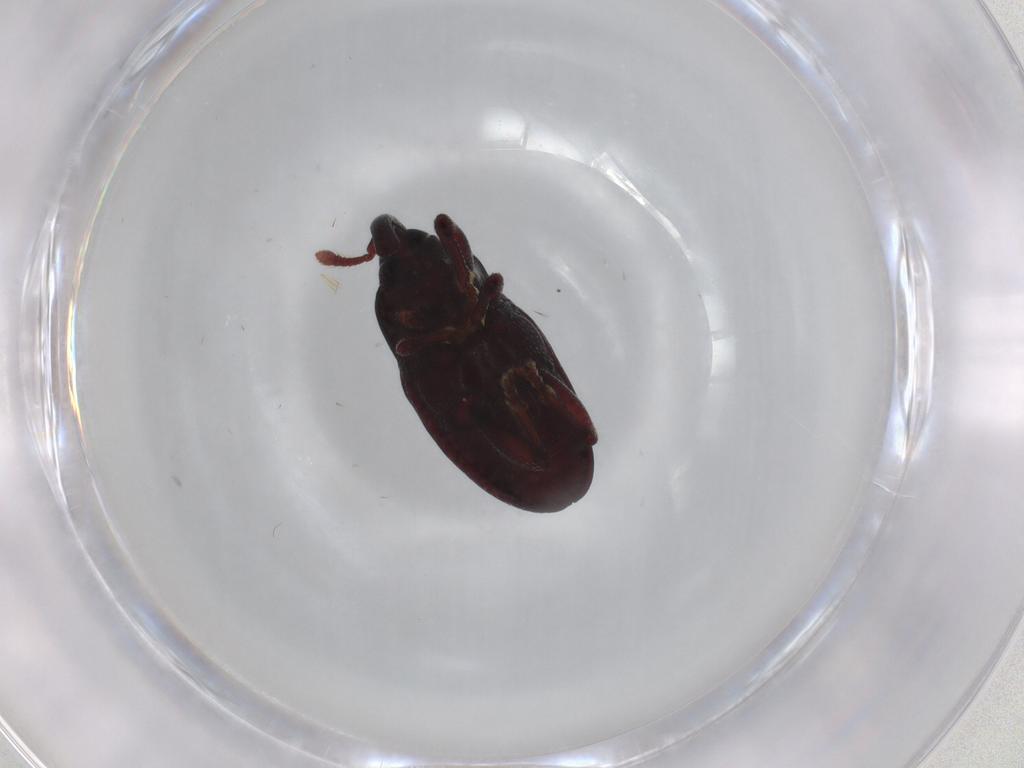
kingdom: Animalia
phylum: Arthropoda
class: Insecta
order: Coleoptera
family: Curculionidae
